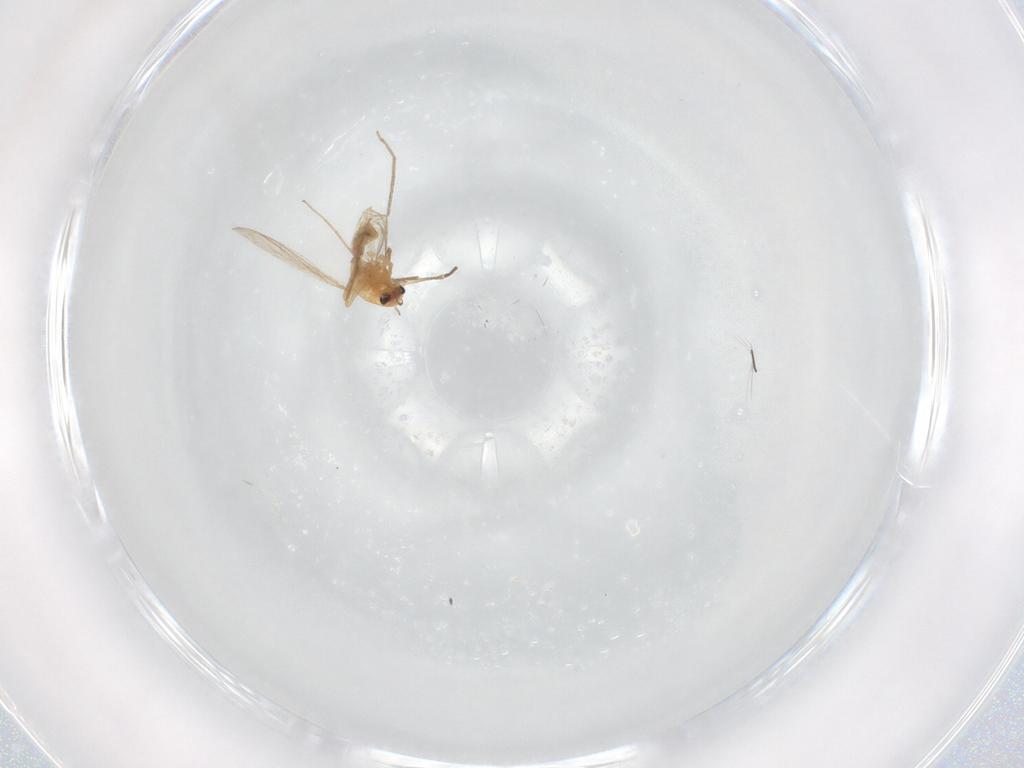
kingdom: Animalia
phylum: Arthropoda
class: Insecta
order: Diptera
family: Chironomidae
